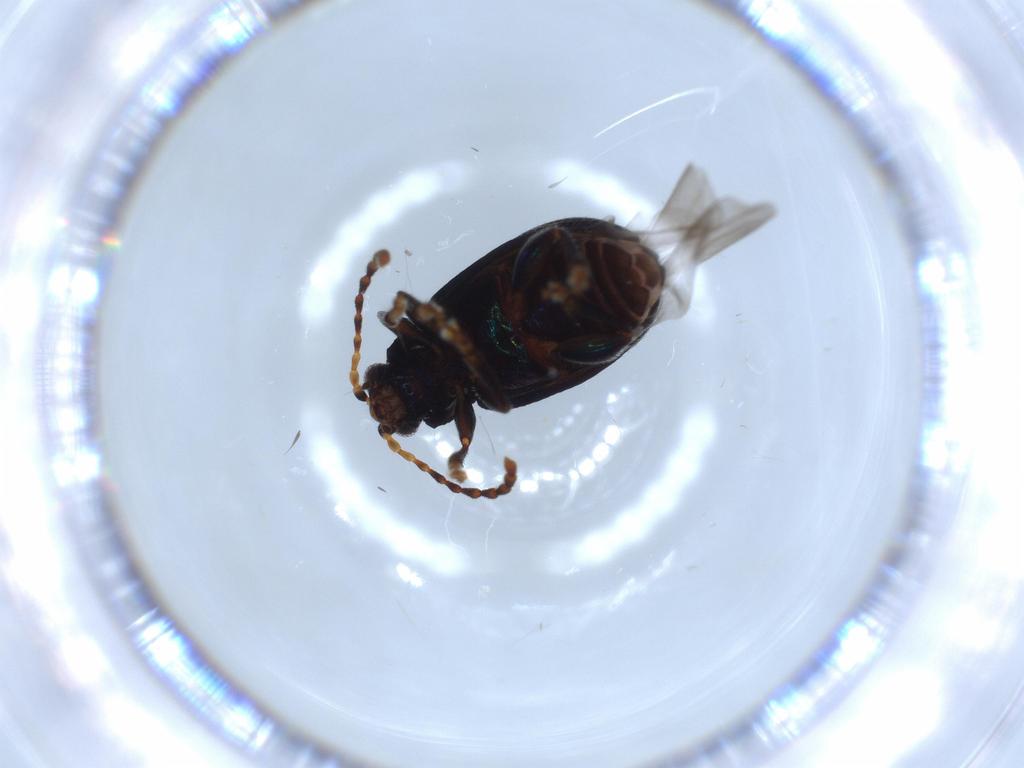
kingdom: Animalia
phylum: Arthropoda
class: Insecta
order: Coleoptera
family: Curculionidae
